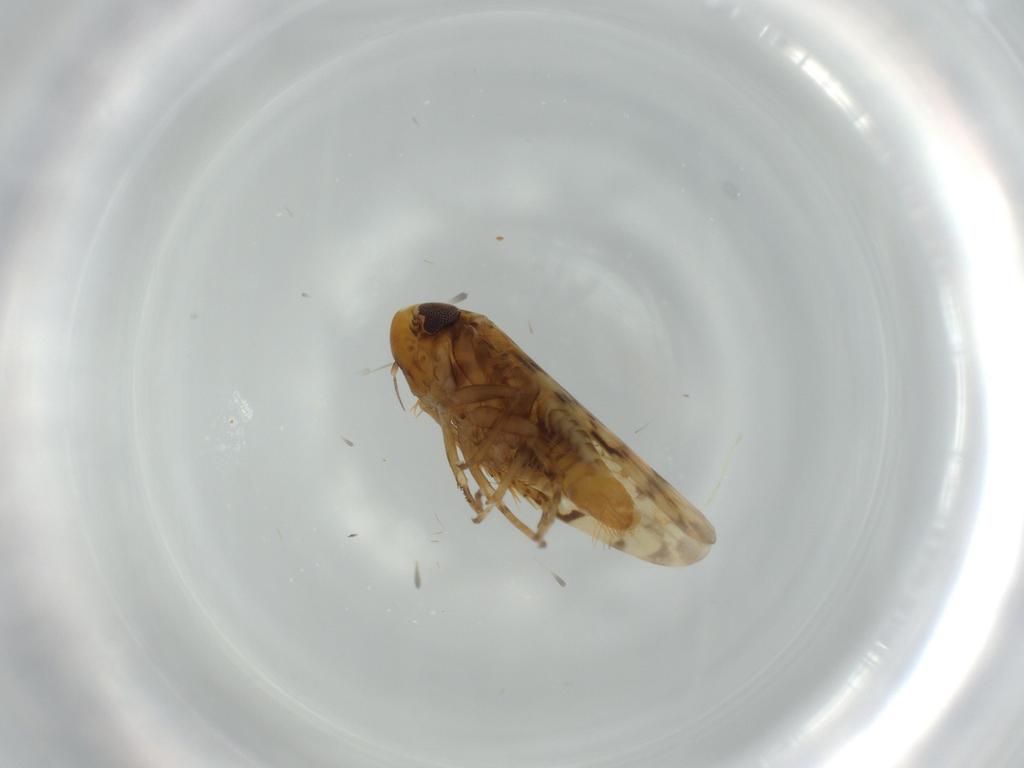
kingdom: Animalia
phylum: Arthropoda
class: Insecta
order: Hemiptera
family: Cicadellidae
